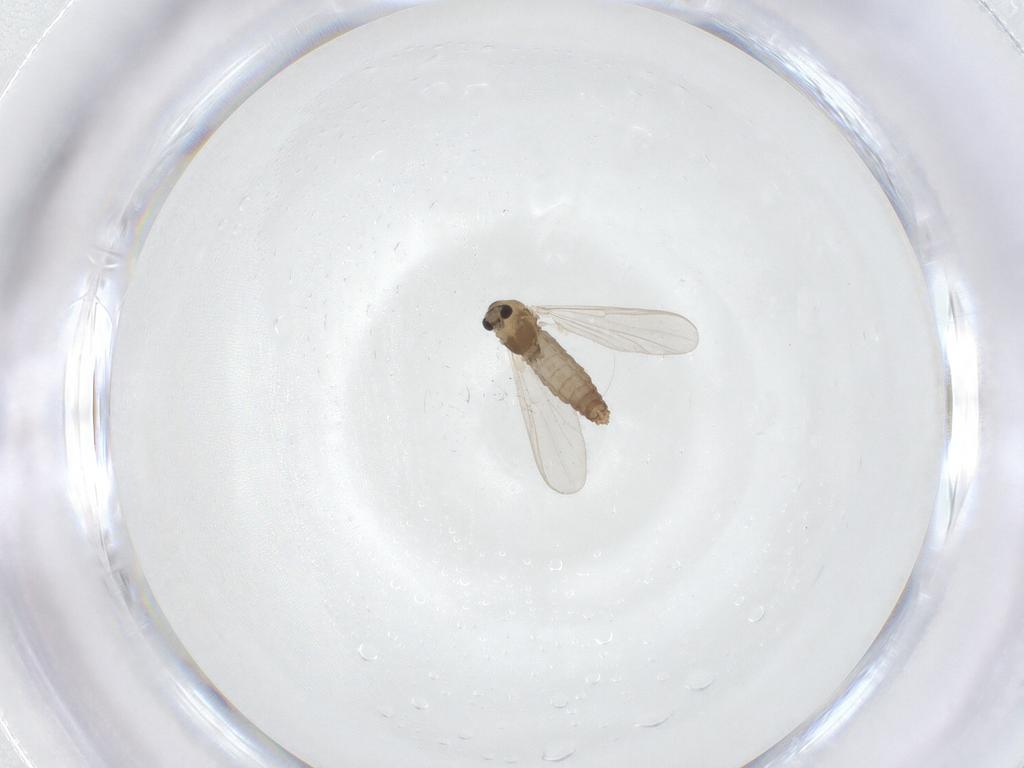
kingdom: Animalia
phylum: Arthropoda
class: Insecta
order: Diptera
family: Chironomidae
